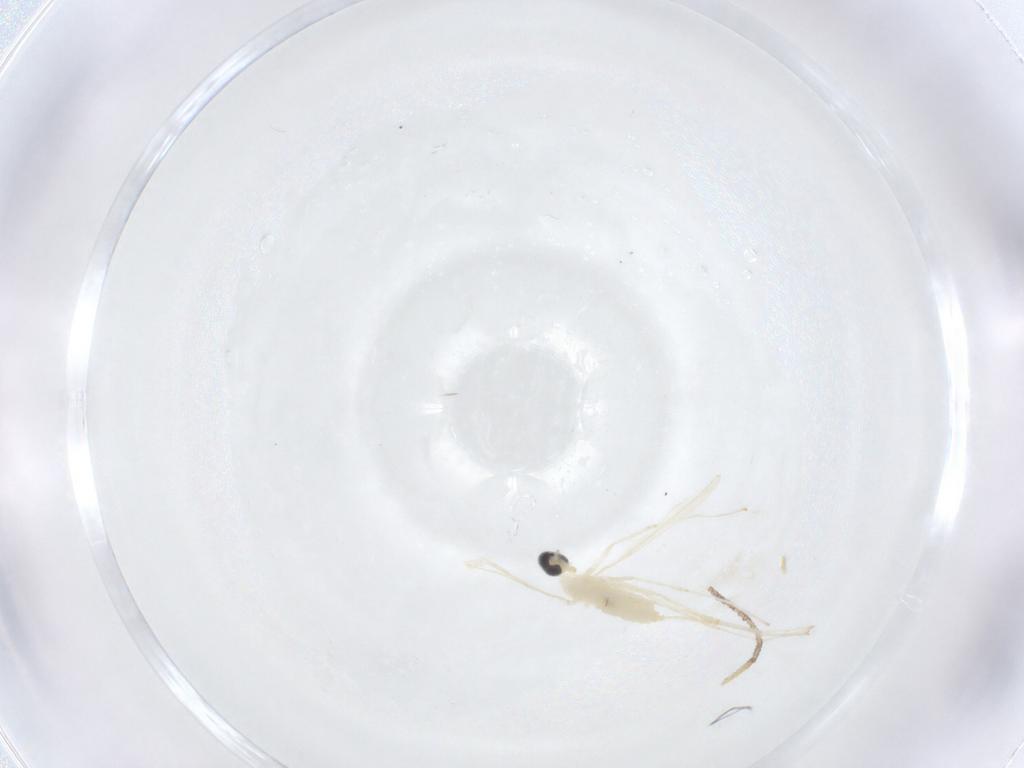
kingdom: Animalia
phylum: Arthropoda
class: Insecta
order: Diptera
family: Cecidomyiidae
